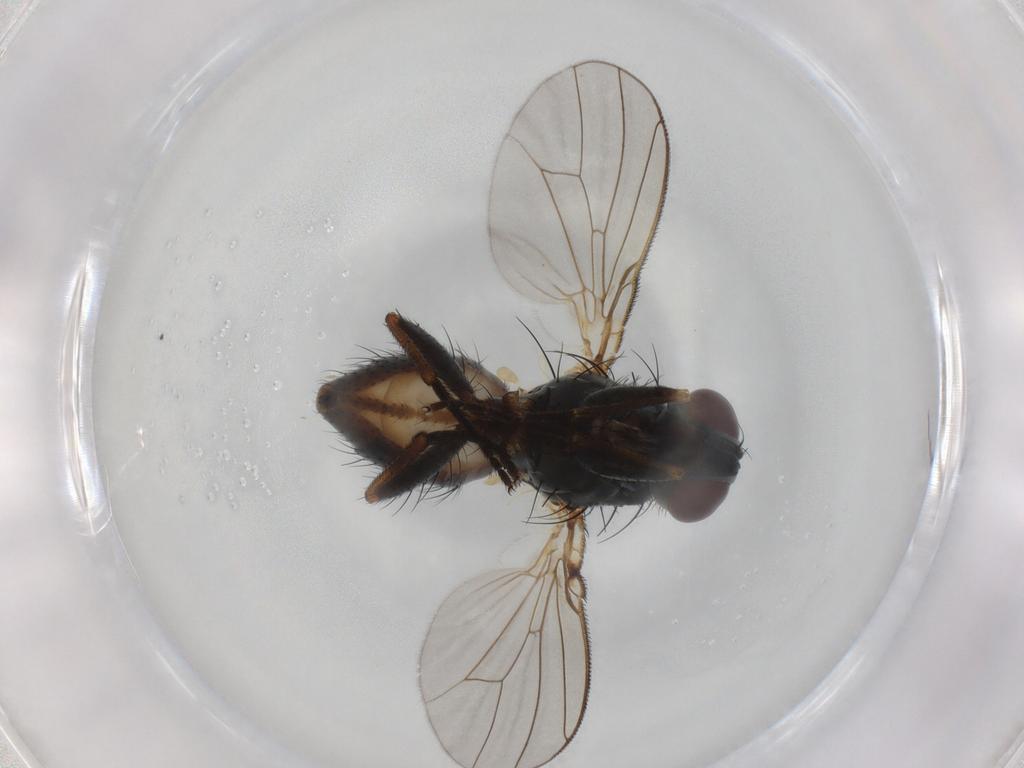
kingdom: Animalia
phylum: Arthropoda
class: Insecta
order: Diptera
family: Muscidae
